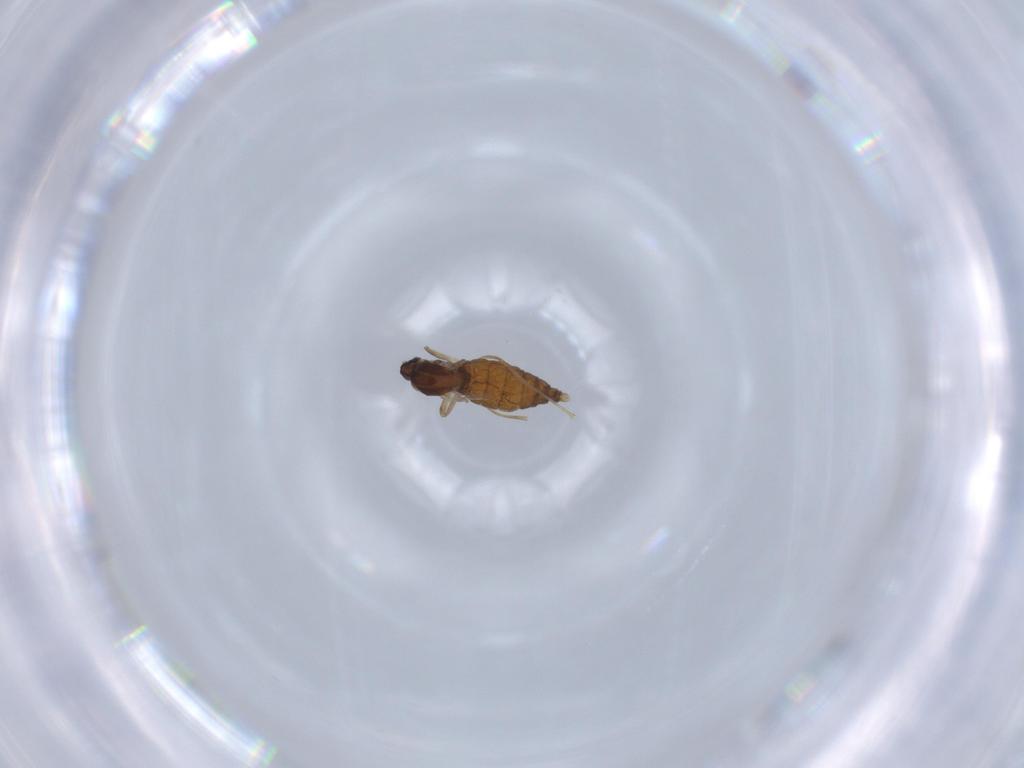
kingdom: Animalia
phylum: Arthropoda
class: Insecta
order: Diptera
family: Cecidomyiidae
